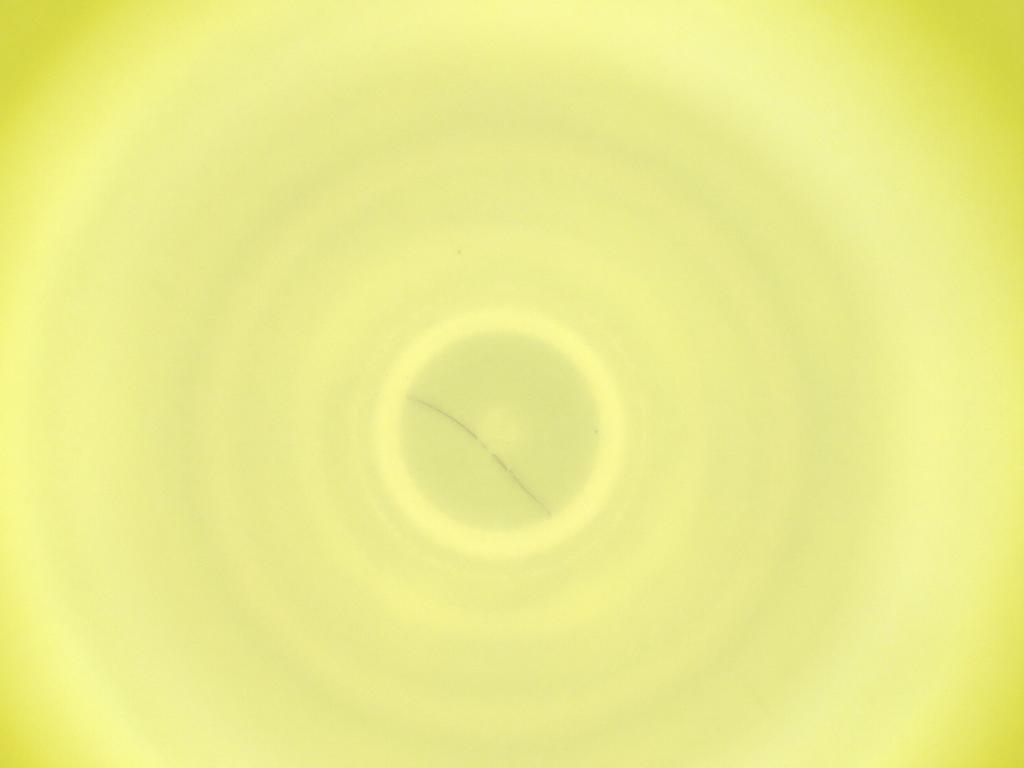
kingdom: Animalia
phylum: Arthropoda
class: Insecta
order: Diptera
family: Cecidomyiidae
